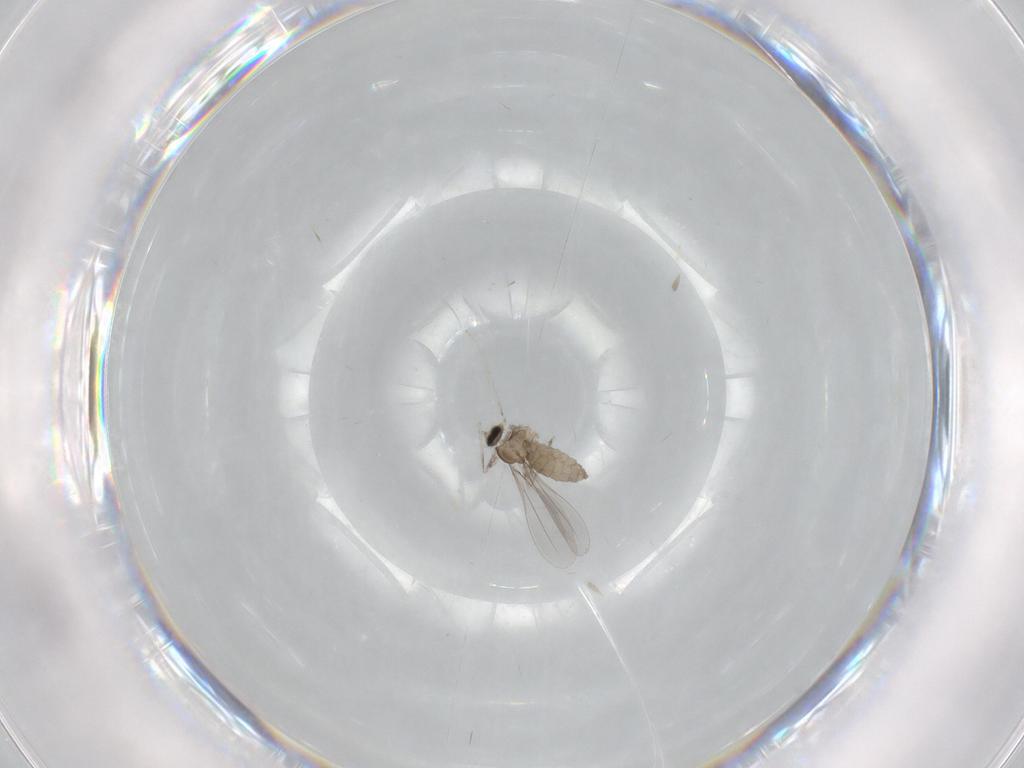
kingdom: Animalia
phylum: Arthropoda
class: Insecta
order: Diptera
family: Cecidomyiidae
